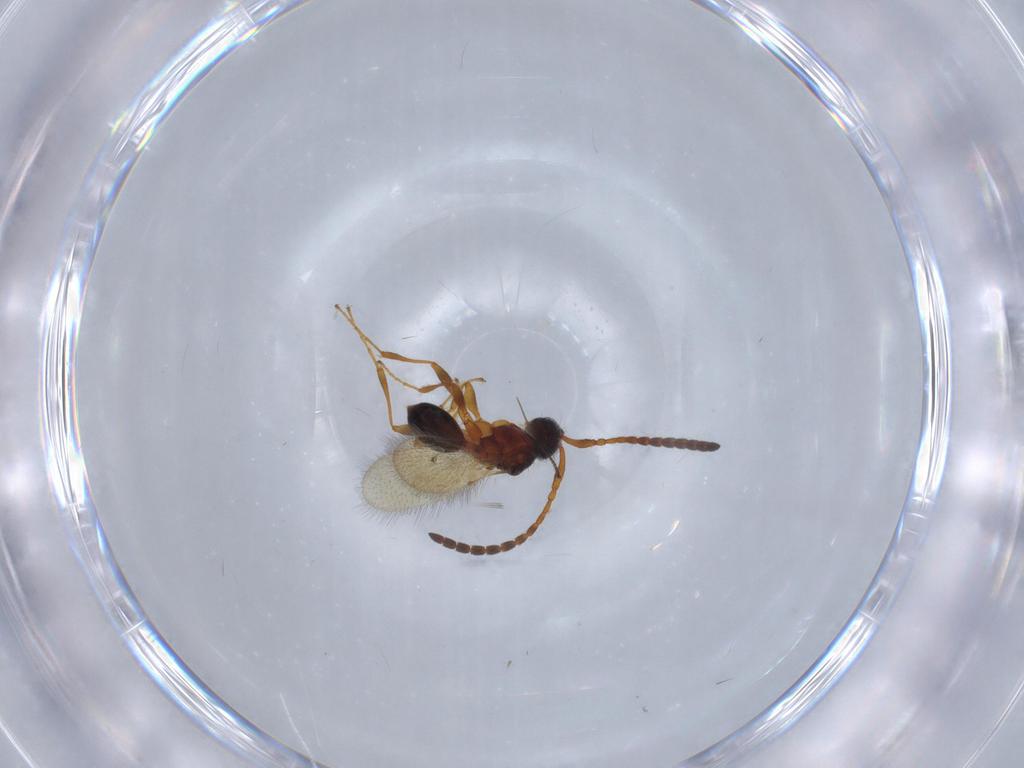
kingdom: Animalia
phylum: Arthropoda
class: Insecta
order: Hymenoptera
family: Diapriidae
